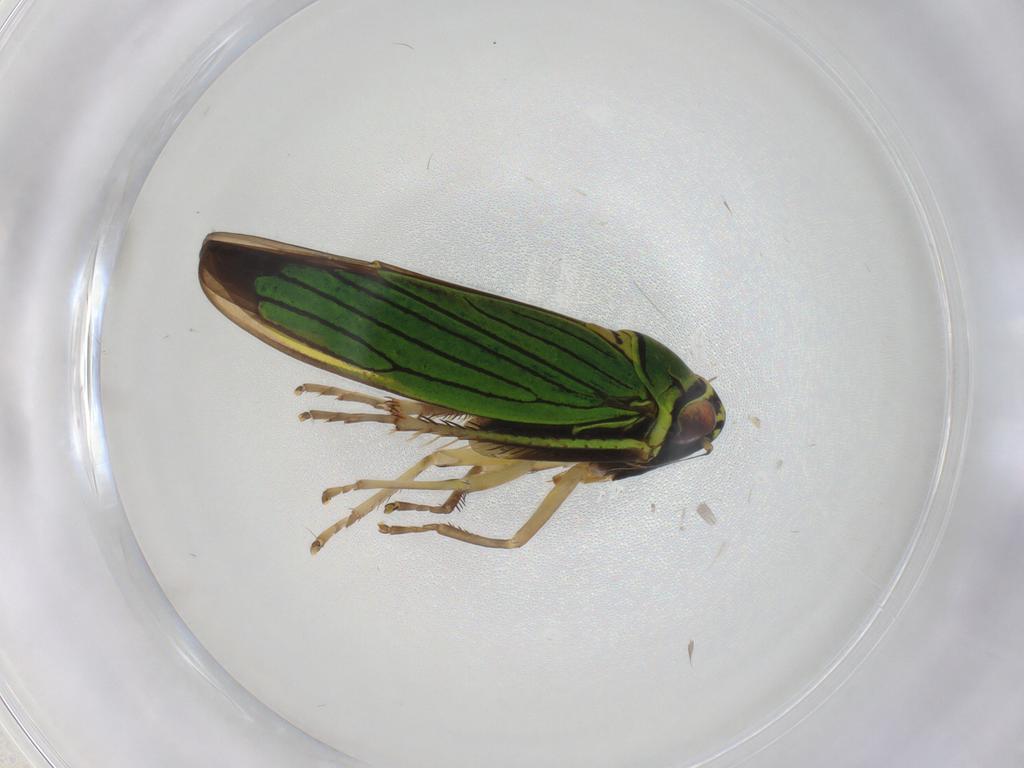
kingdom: Animalia
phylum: Arthropoda
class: Insecta
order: Hemiptera
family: Cicadellidae
